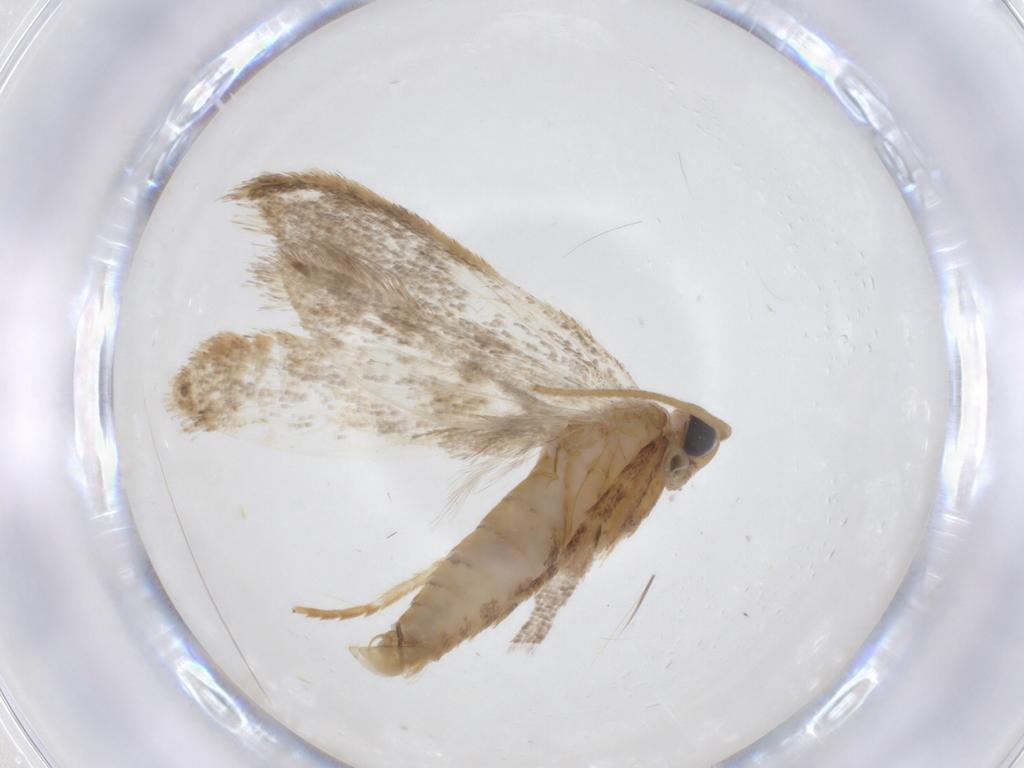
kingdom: Animalia
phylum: Arthropoda
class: Insecta
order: Lepidoptera
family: Oecophoridae
